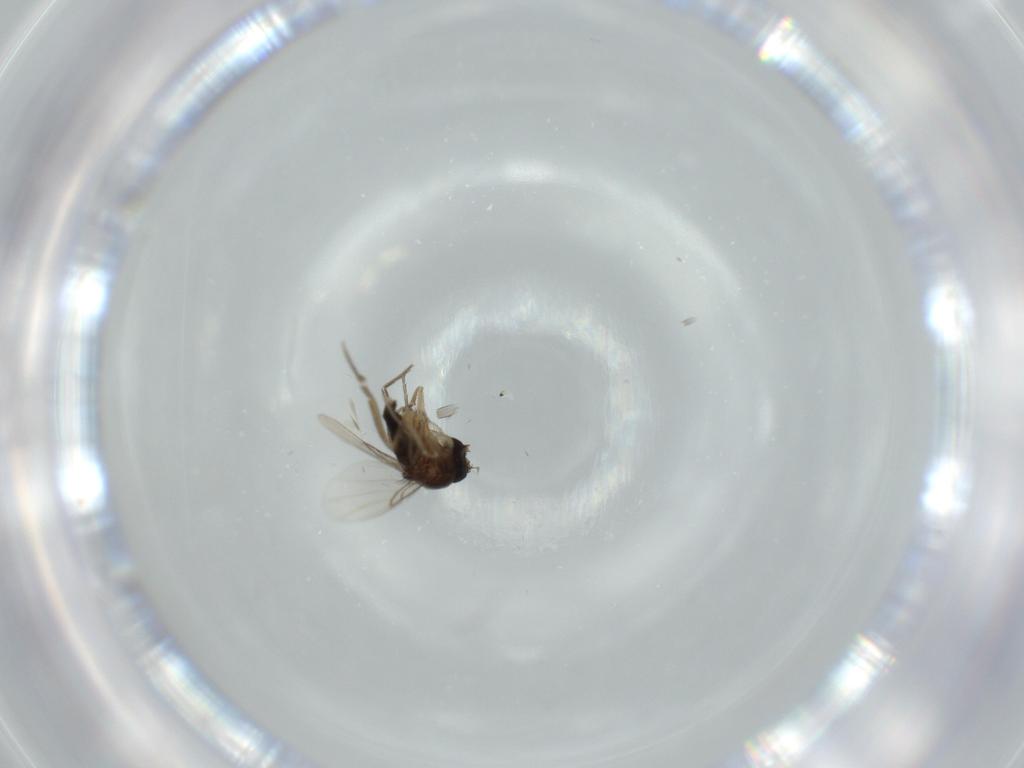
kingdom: Animalia
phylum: Arthropoda
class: Insecta
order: Diptera
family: Phoridae
